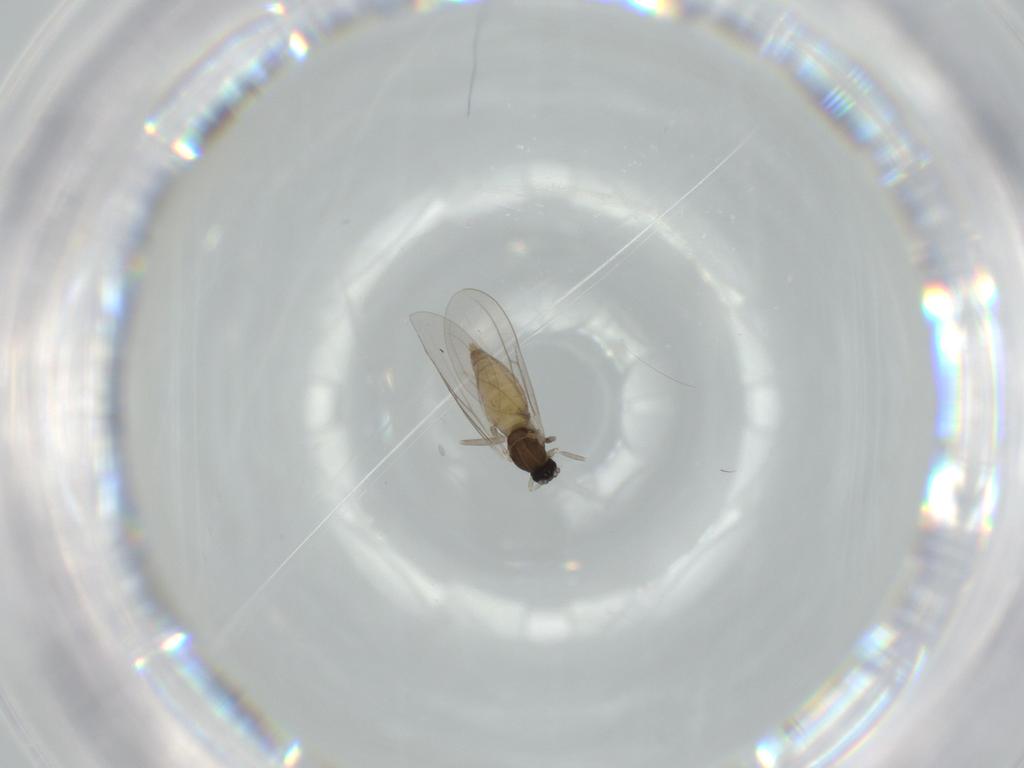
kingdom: Animalia
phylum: Arthropoda
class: Insecta
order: Diptera
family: Cecidomyiidae
